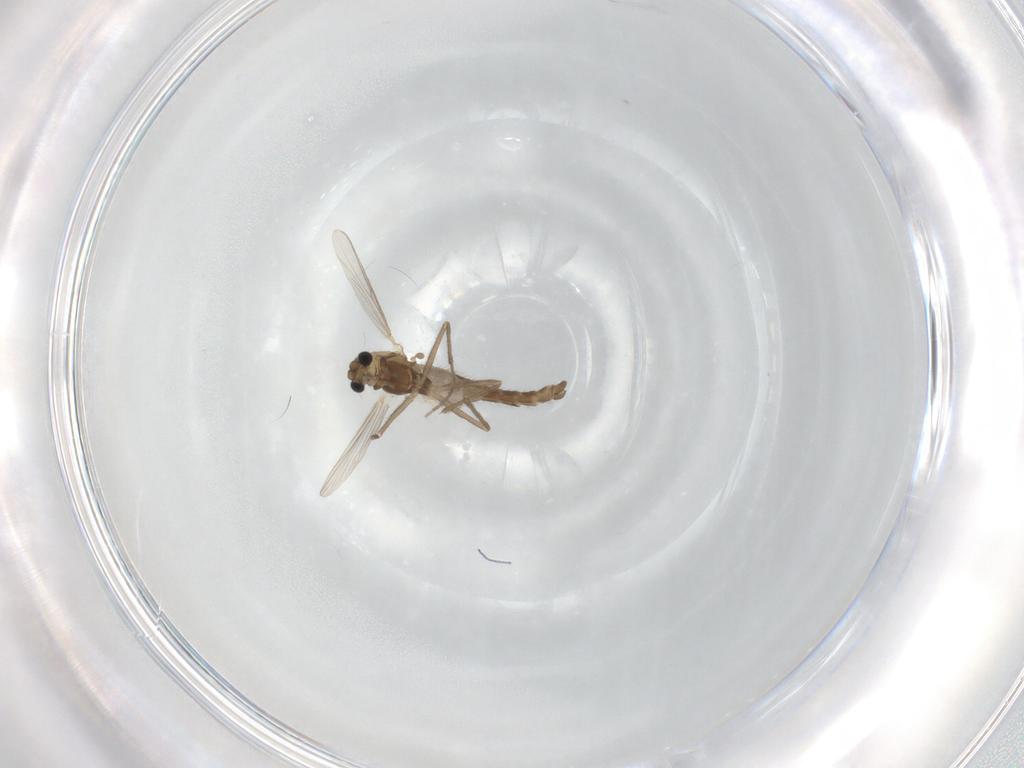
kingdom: Animalia
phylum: Arthropoda
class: Insecta
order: Diptera
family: Chironomidae
